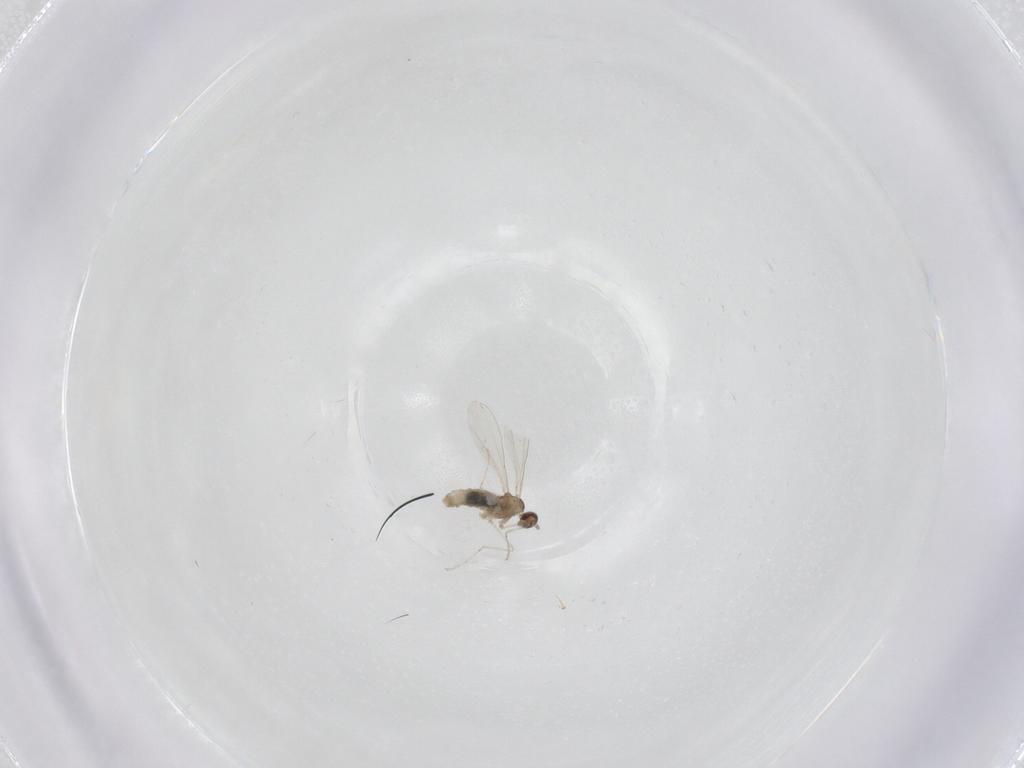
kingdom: Animalia
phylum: Arthropoda
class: Insecta
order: Diptera
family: Cecidomyiidae
